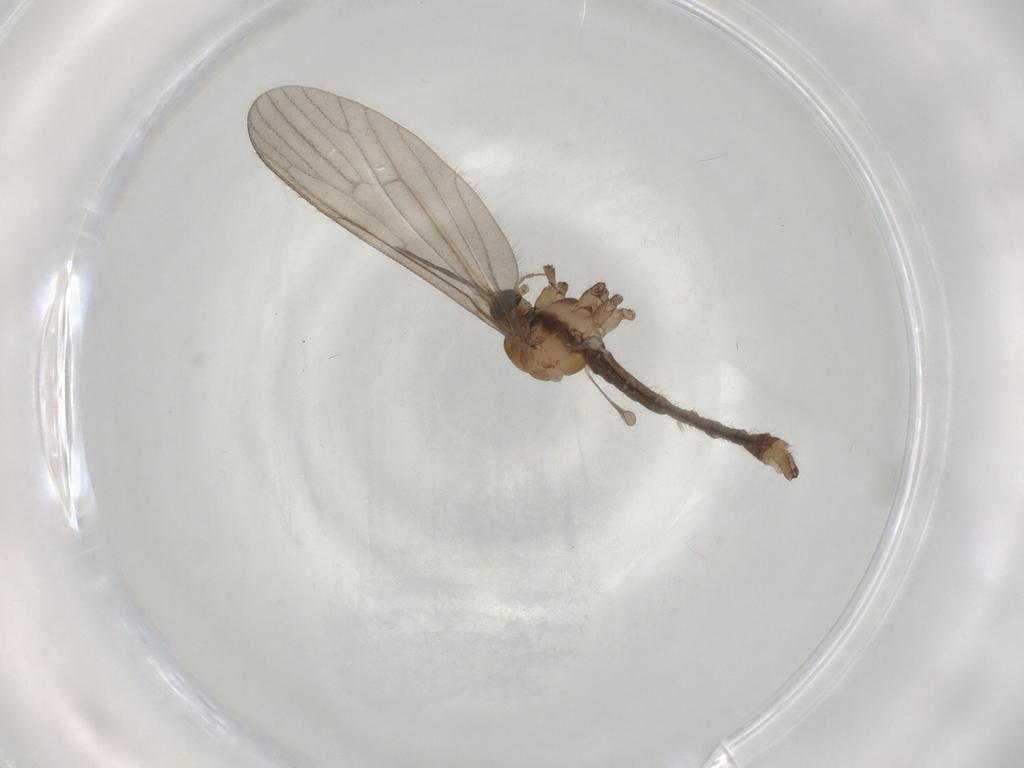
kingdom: Animalia
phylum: Arthropoda
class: Insecta
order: Diptera
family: Limoniidae
